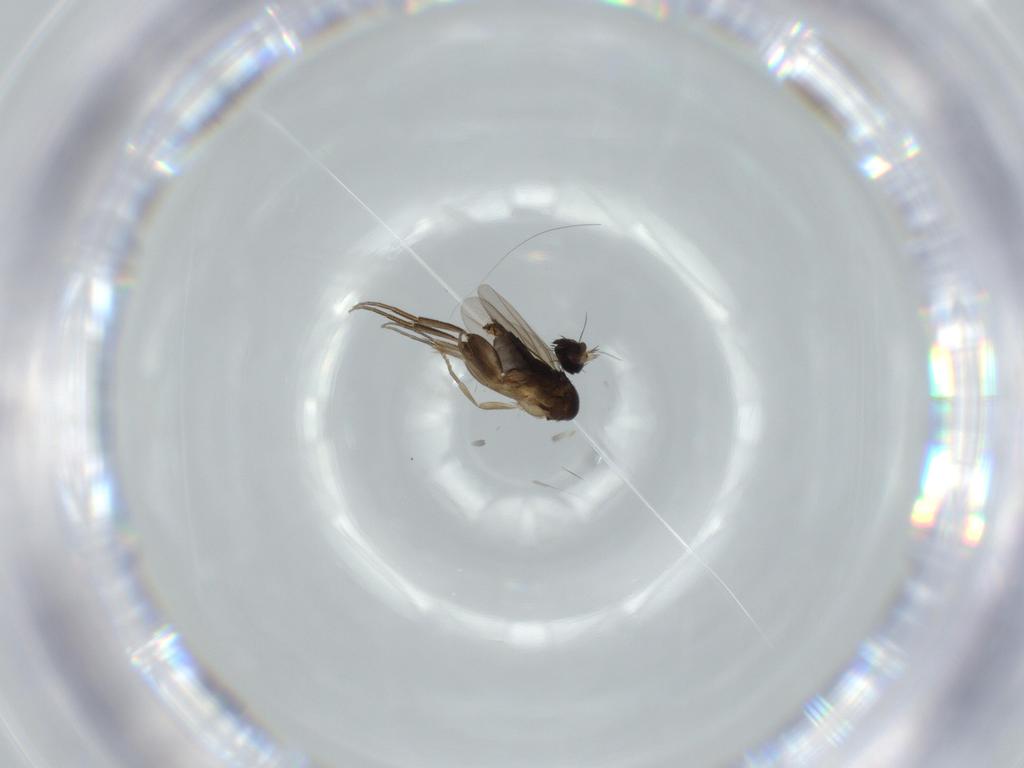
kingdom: Animalia
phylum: Arthropoda
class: Insecta
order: Diptera
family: Phoridae
